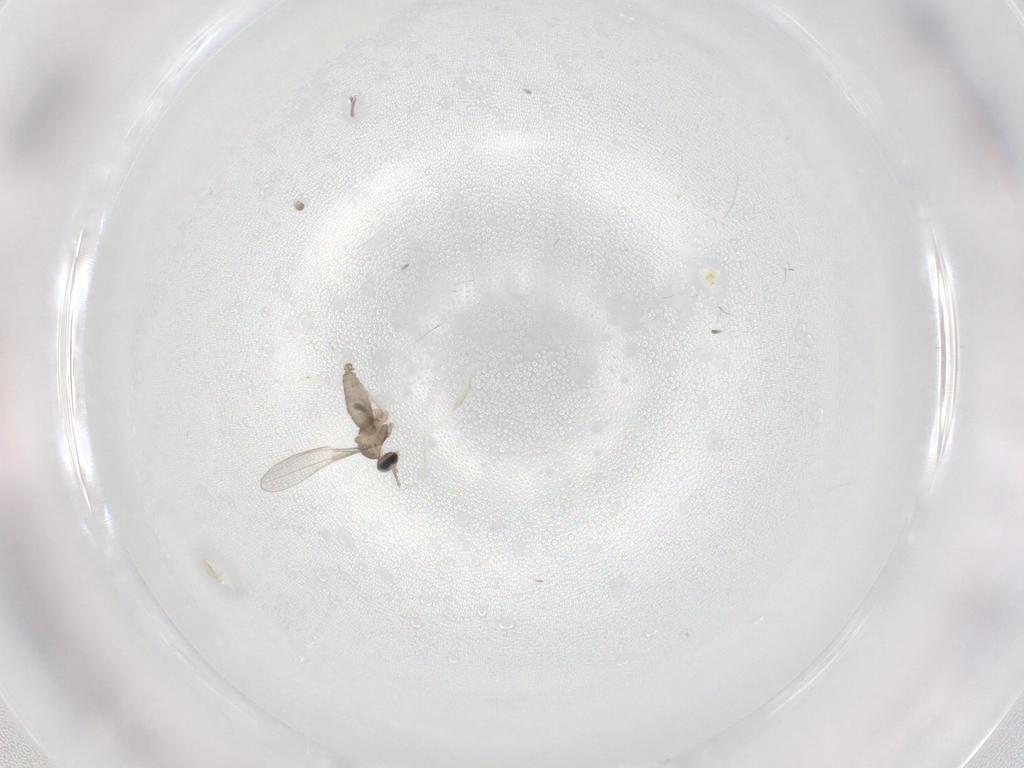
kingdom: Animalia
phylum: Arthropoda
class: Insecta
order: Diptera
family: Cecidomyiidae
